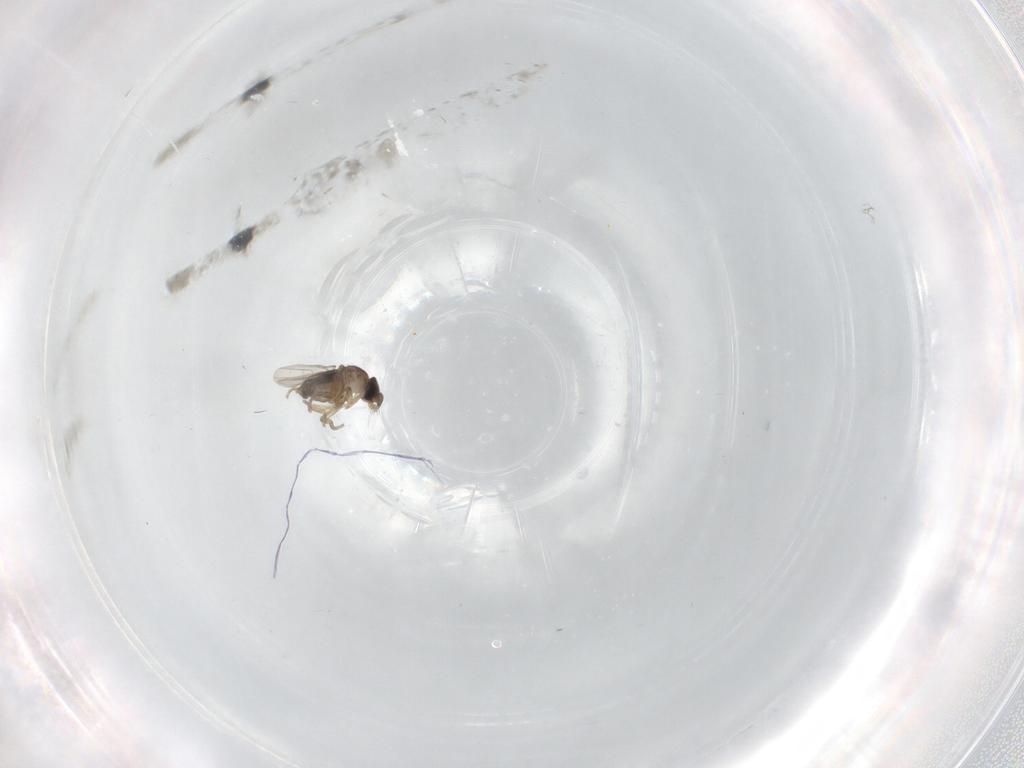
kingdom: Animalia
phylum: Arthropoda
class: Insecta
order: Diptera
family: Phoridae
